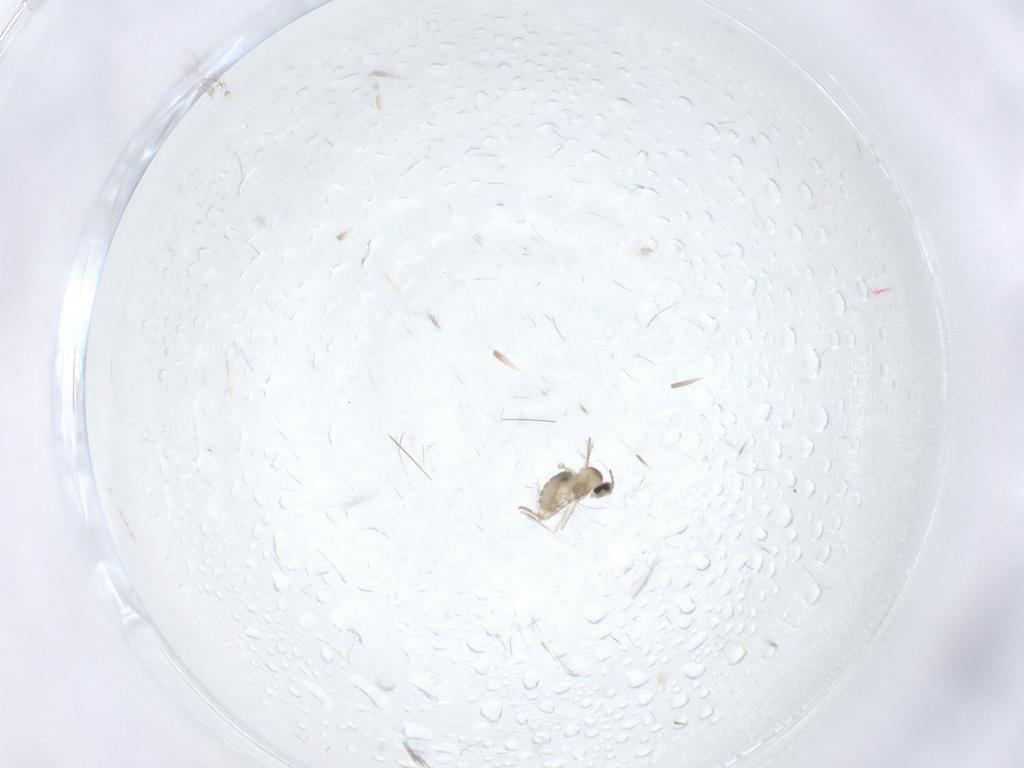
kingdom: Animalia
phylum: Arthropoda
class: Insecta
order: Diptera
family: Cecidomyiidae
